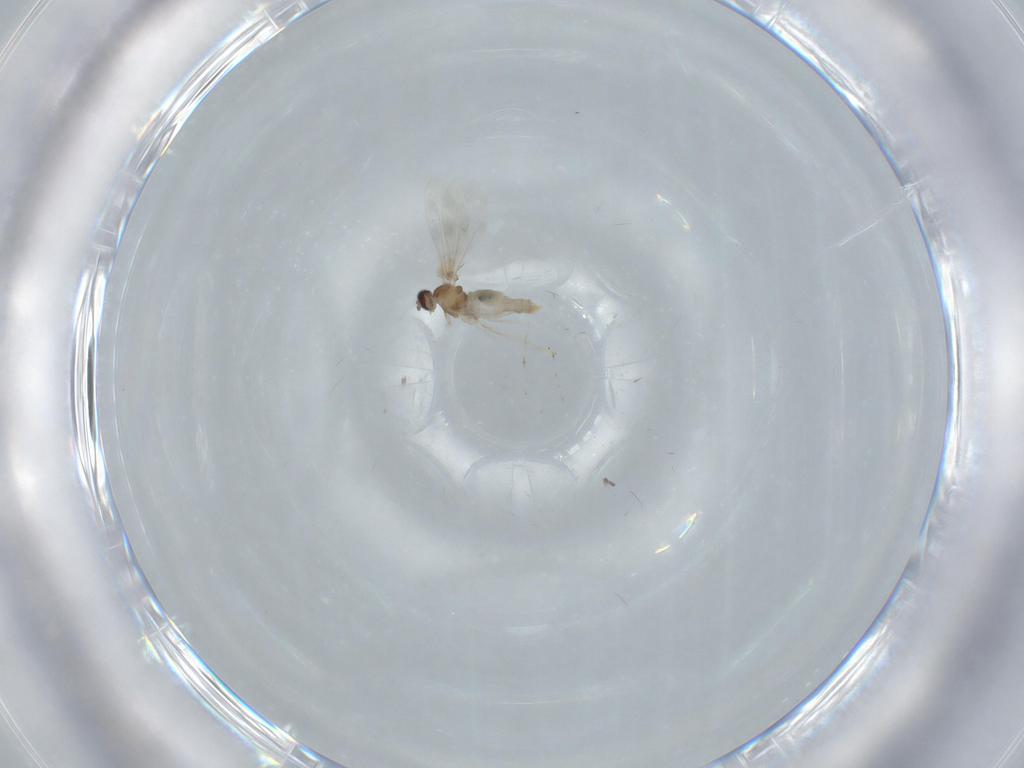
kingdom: Animalia
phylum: Arthropoda
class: Insecta
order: Diptera
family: Cecidomyiidae
